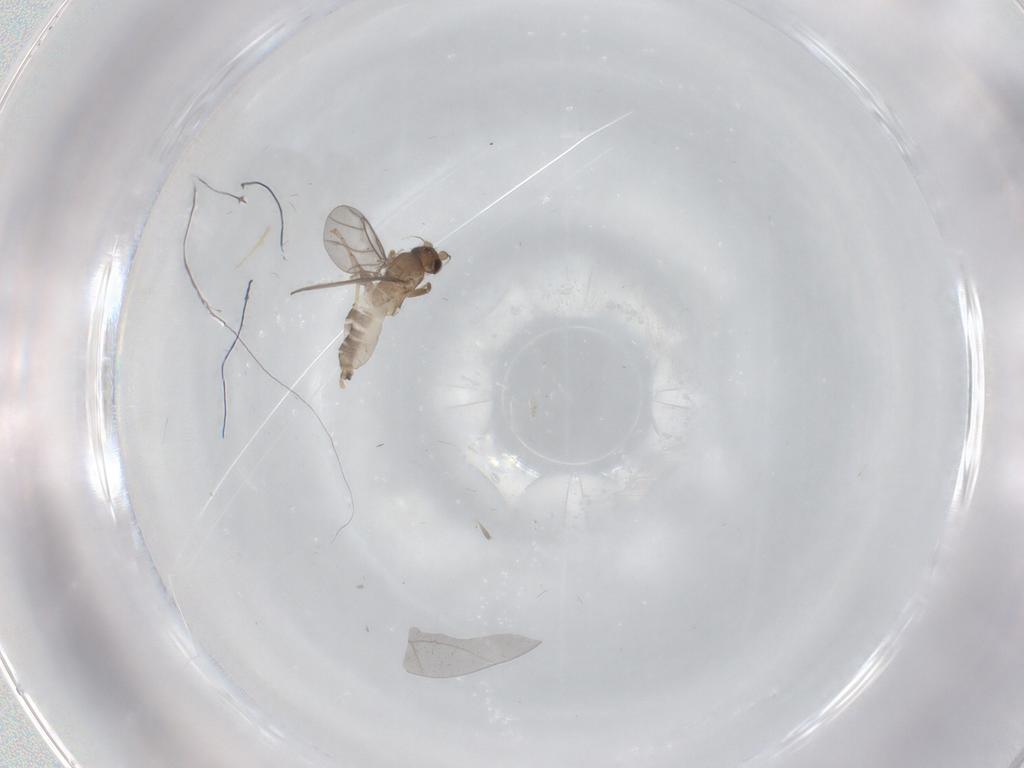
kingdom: Animalia
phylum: Arthropoda
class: Insecta
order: Diptera
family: Cecidomyiidae
